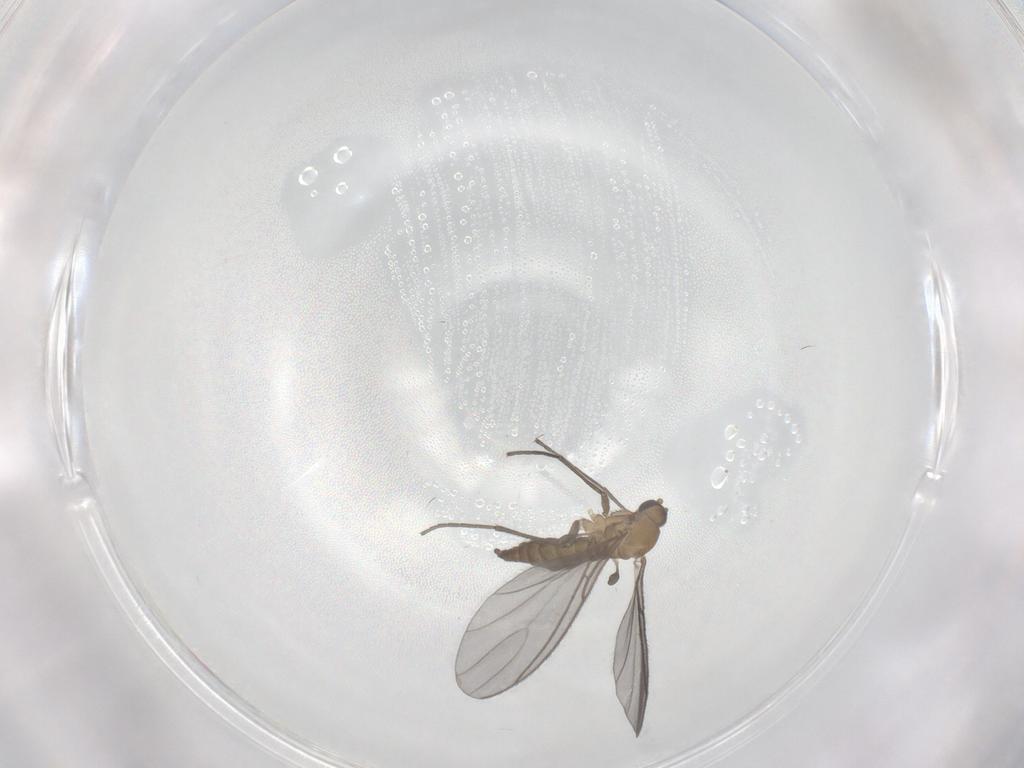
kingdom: Animalia
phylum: Arthropoda
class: Insecta
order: Diptera
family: Sciaridae
